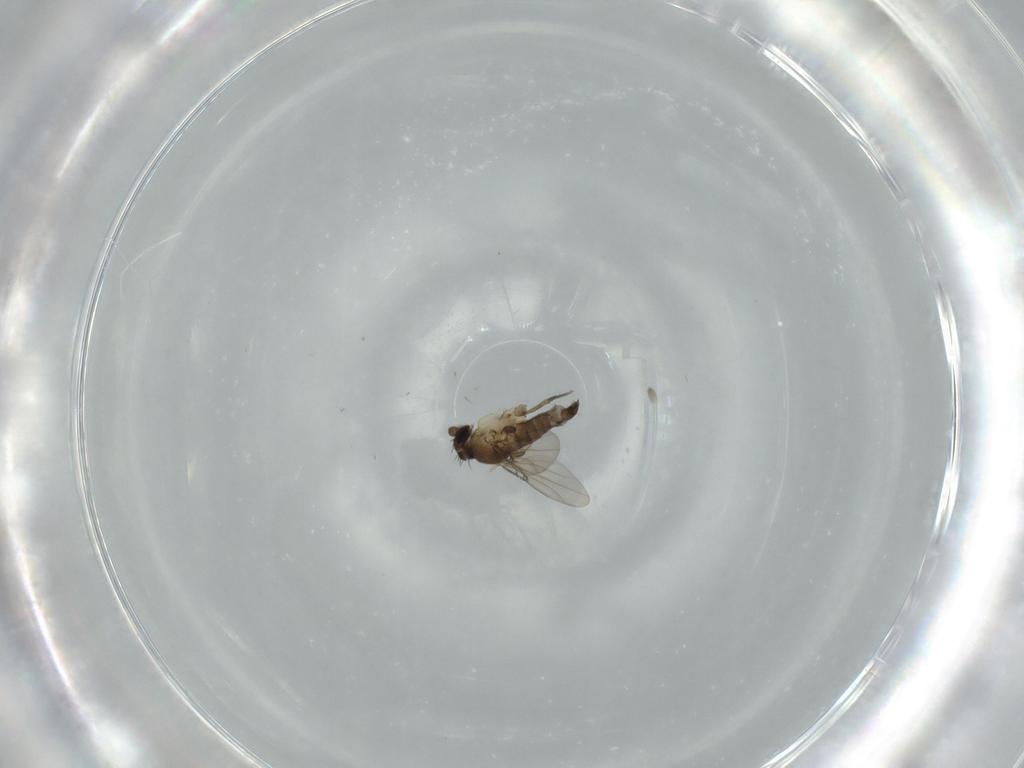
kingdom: Animalia
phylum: Arthropoda
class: Insecta
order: Diptera
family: Phoridae
